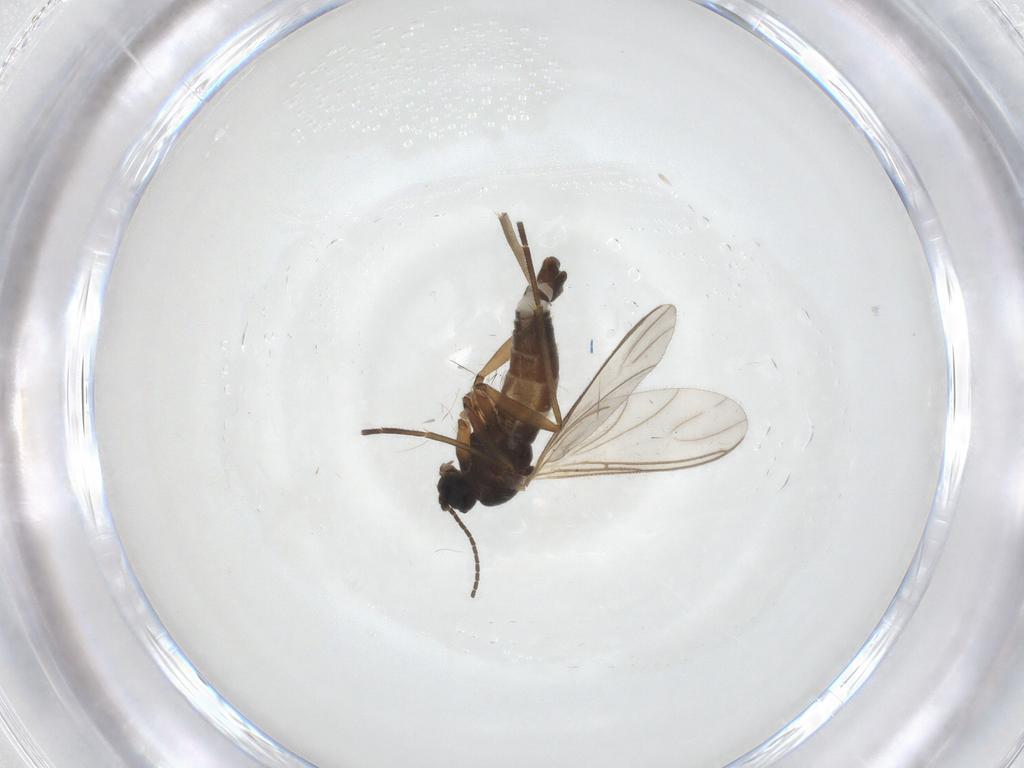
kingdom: Animalia
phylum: Arthropoda
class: Insecta
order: Diptera
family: Sciaridae
